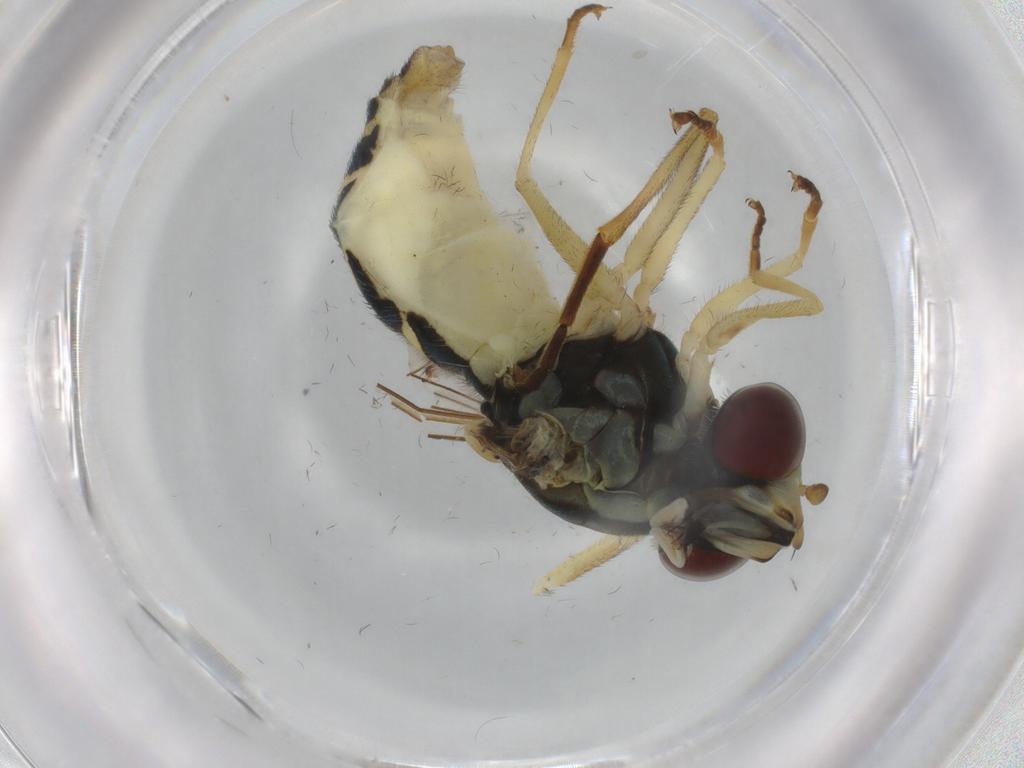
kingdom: Animalia
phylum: Arthropoda
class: Insecta
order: Diptera
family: Syrphidae
